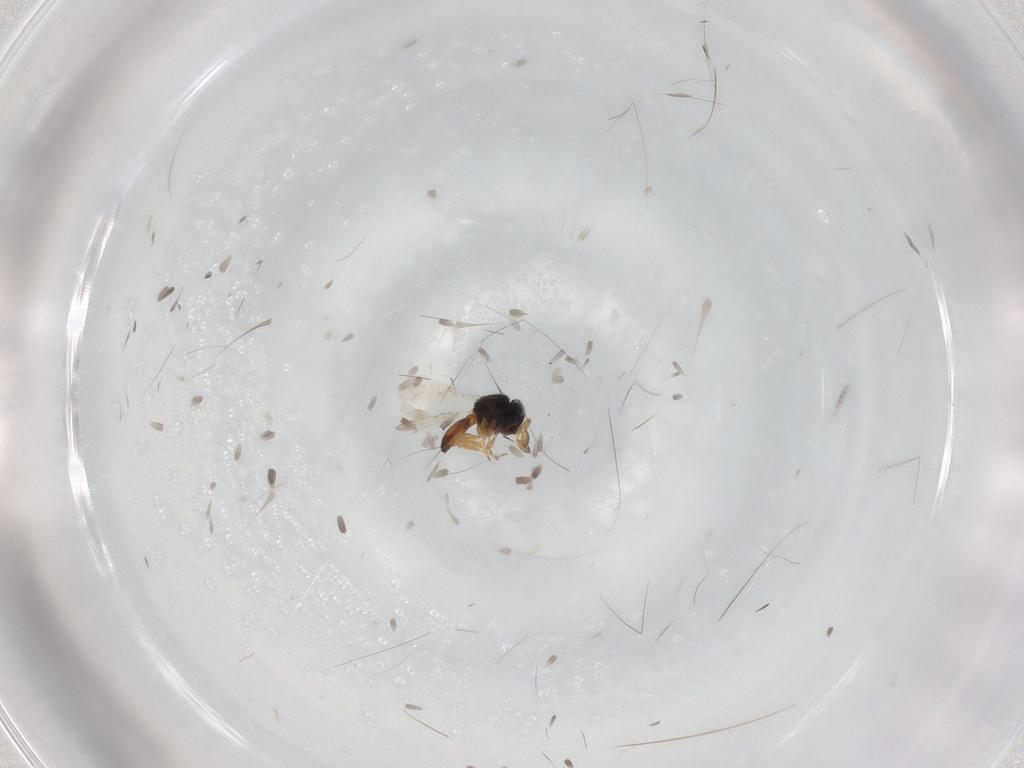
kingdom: Animalia
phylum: Arthropoda
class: Insecta
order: Hymenoptera
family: Scelionidae
